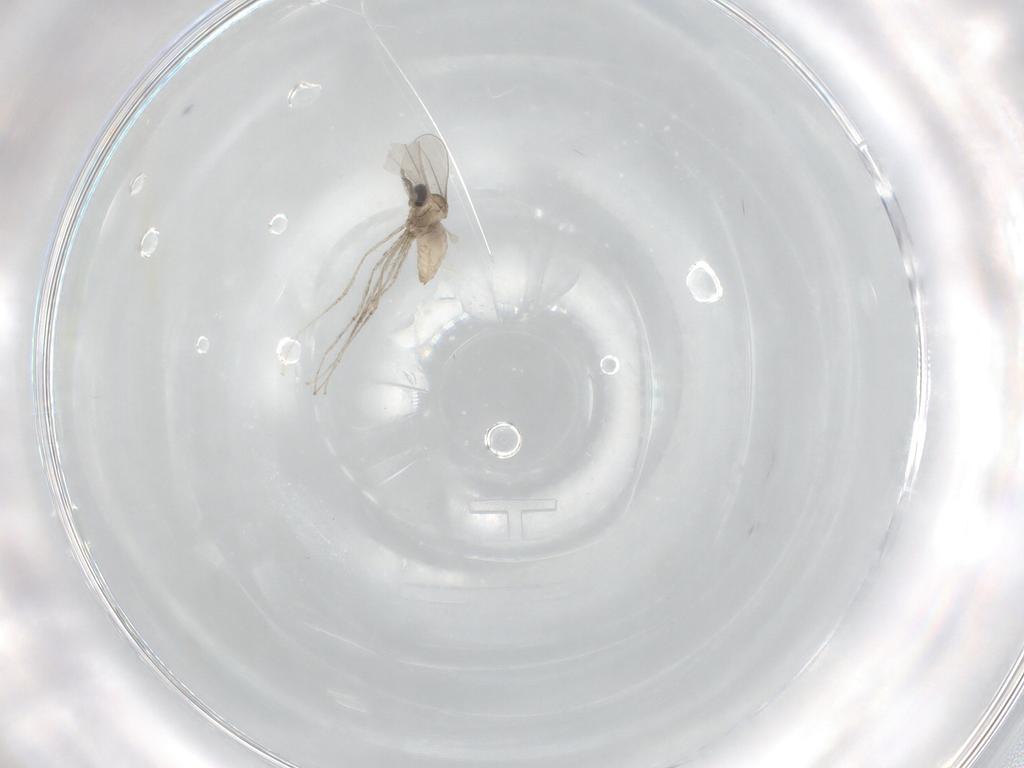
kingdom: Animalia
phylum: Arthropoda
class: Insecta
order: Diptera
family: Cecidomyiidae
